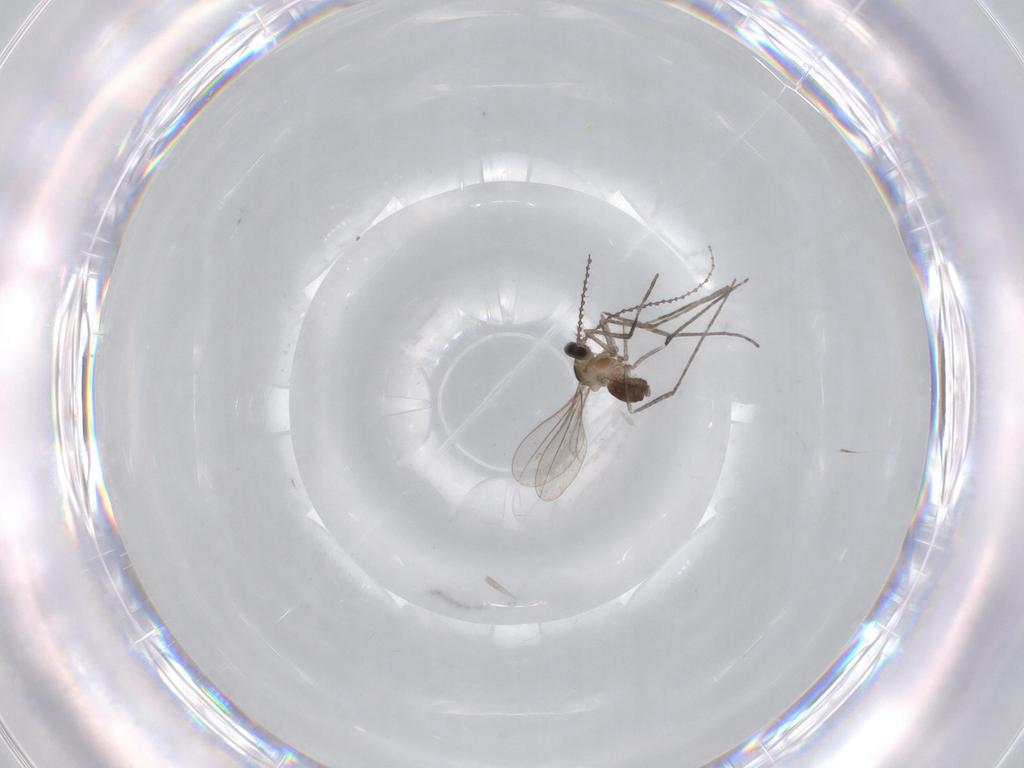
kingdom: Animalia
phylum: Arthropoda
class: Insecta
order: Diptera
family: Cecidomyiidae
